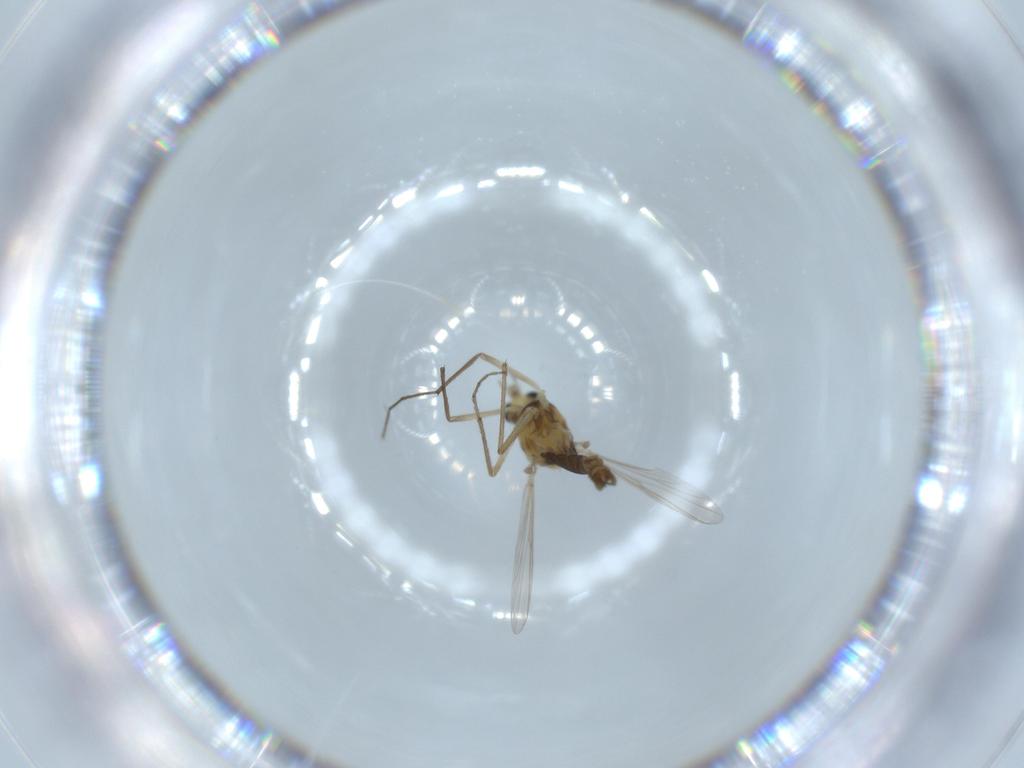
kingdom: Animalia
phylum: Arthropoda
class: Insecta
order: Diptera
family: Chironomidae
